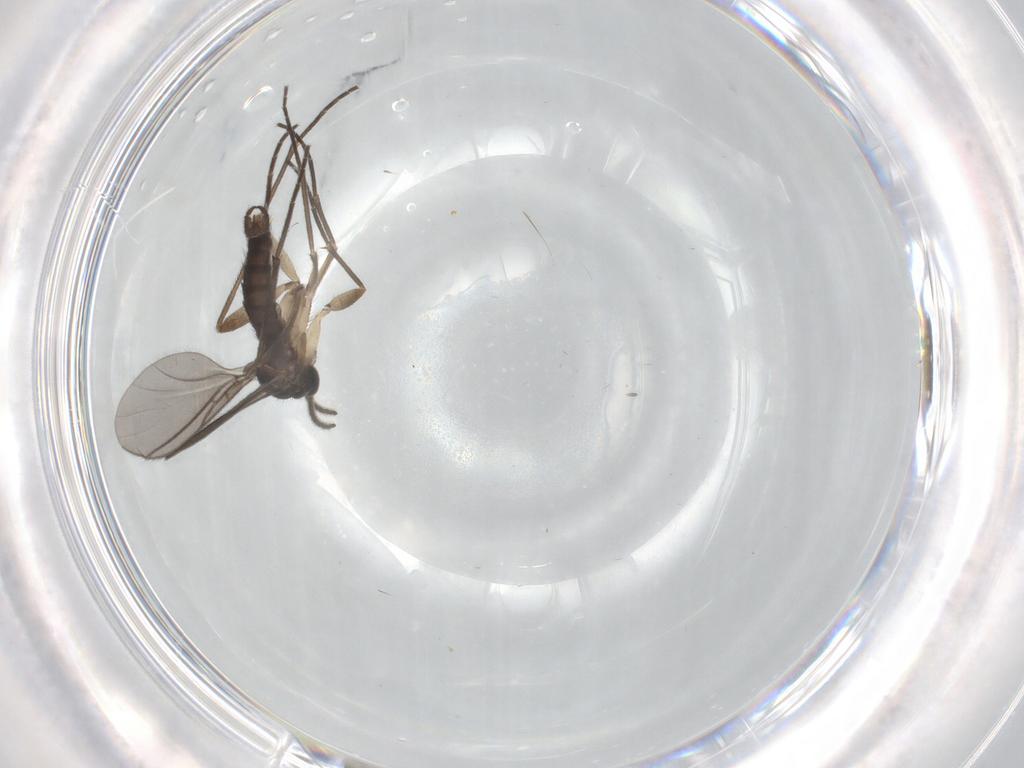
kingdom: Animalia
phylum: Arthropoda
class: Insecta
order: Diptera
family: Sciaridae
